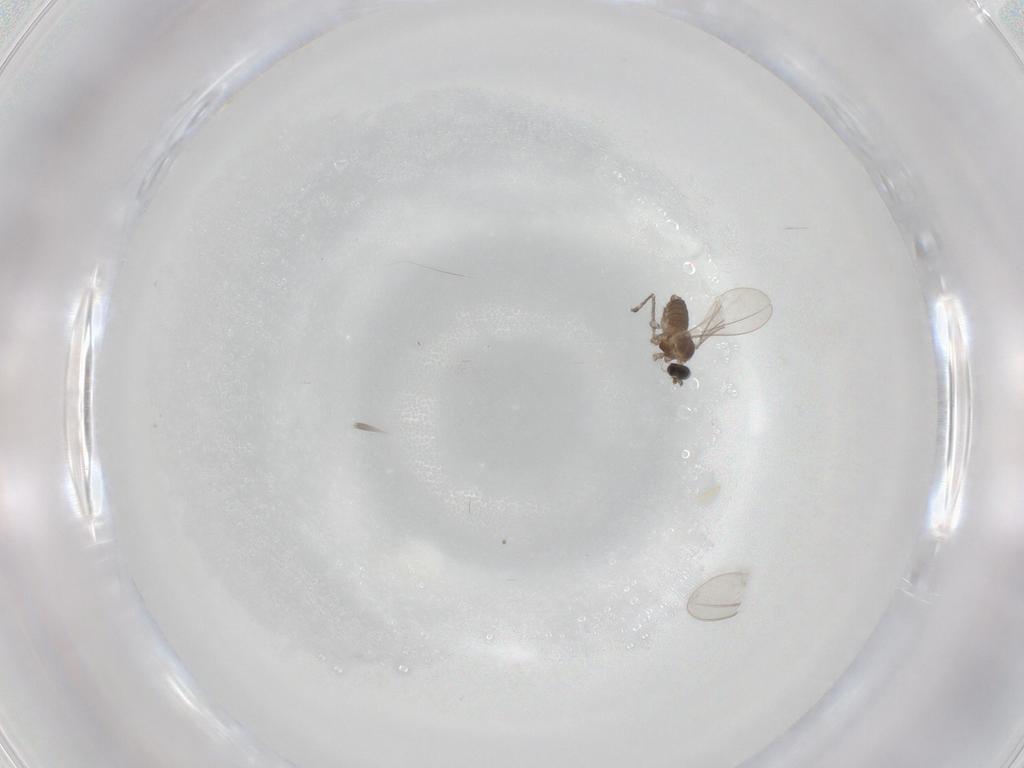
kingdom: Animalia
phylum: Arthropoda
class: Insecta
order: Diptera
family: Cecidomyiidae
